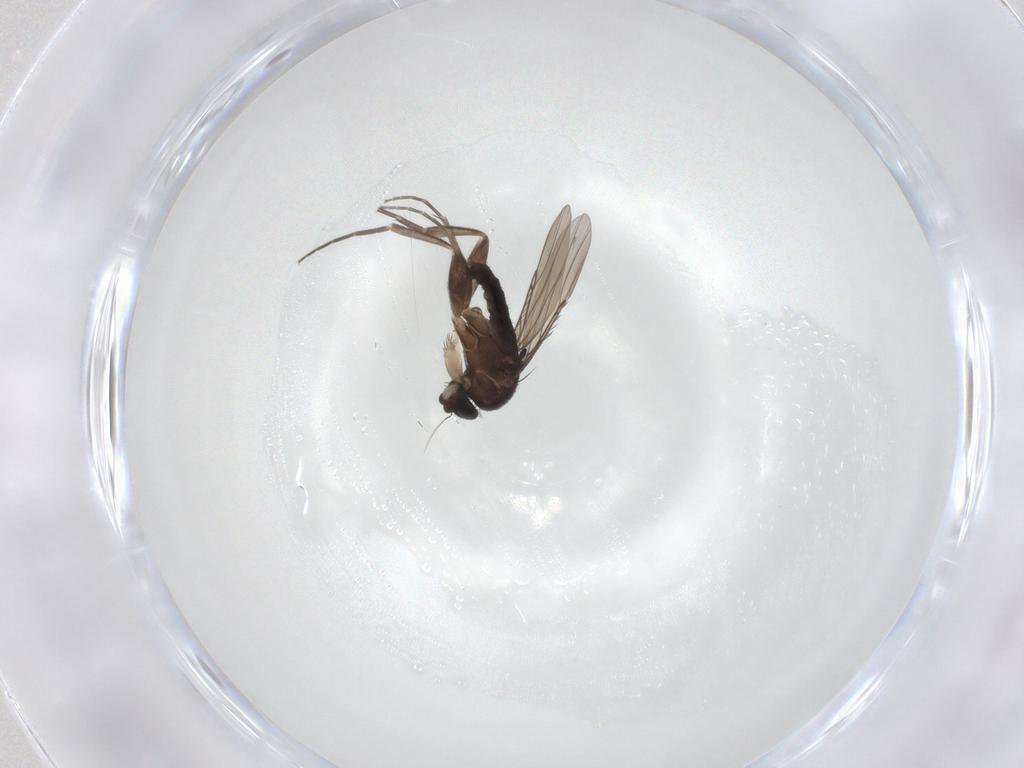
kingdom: Animalia
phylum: Arthropoda
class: Insecta
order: Diptera
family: Phoridae
